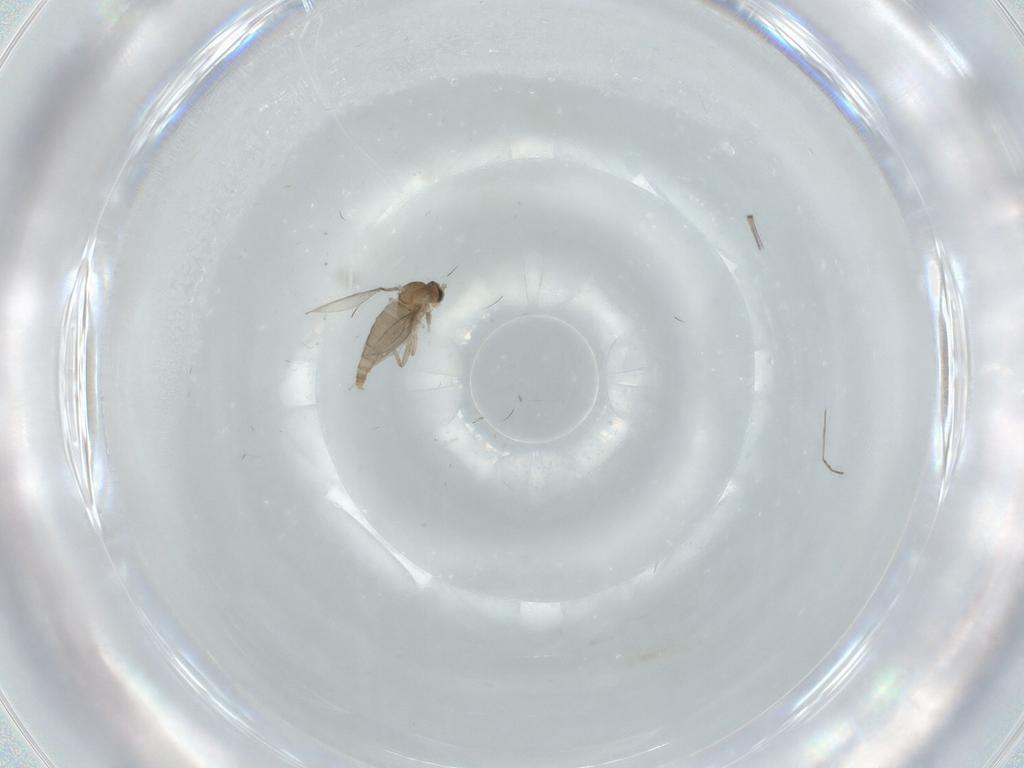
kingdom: Animalia
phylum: Arthropoda
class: Insecta
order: Diptera
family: Cecidomyiidae
